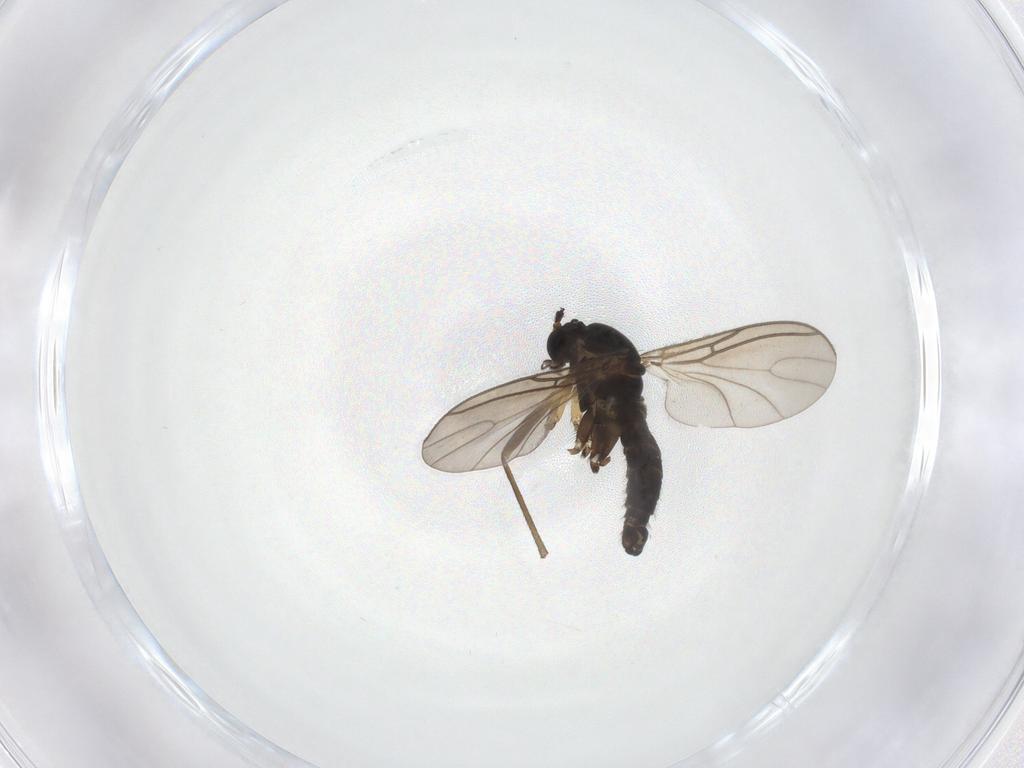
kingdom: Animalia
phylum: Arthropoda
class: Insecta
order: Diptera
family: Sciaridae
